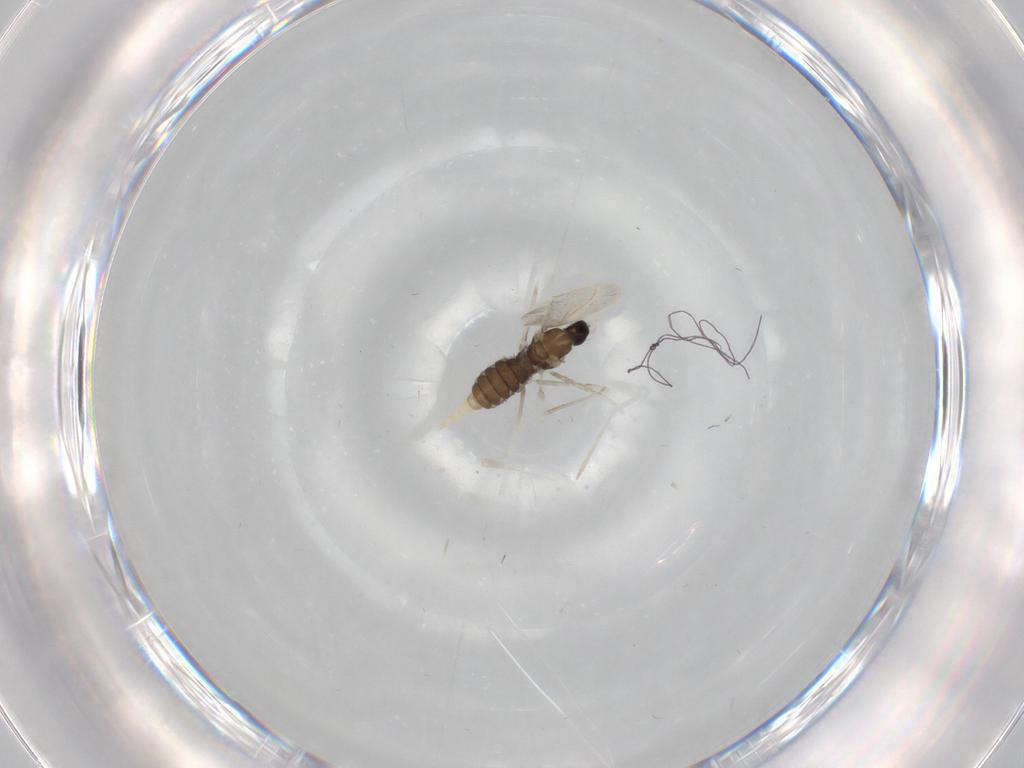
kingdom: Animalia
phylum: Arthropoda
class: Insecta
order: Diptera
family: Cecidomyiidae
